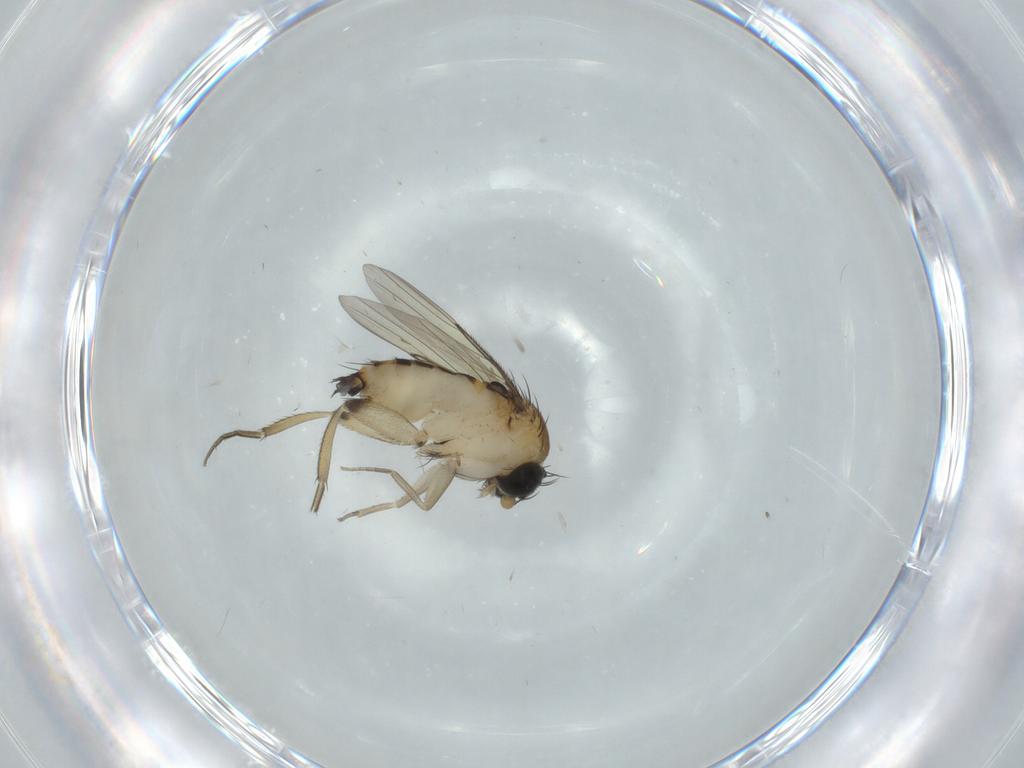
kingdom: Animalia
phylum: Arthropoda
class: Insecta
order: Diptera
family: Phoridae
